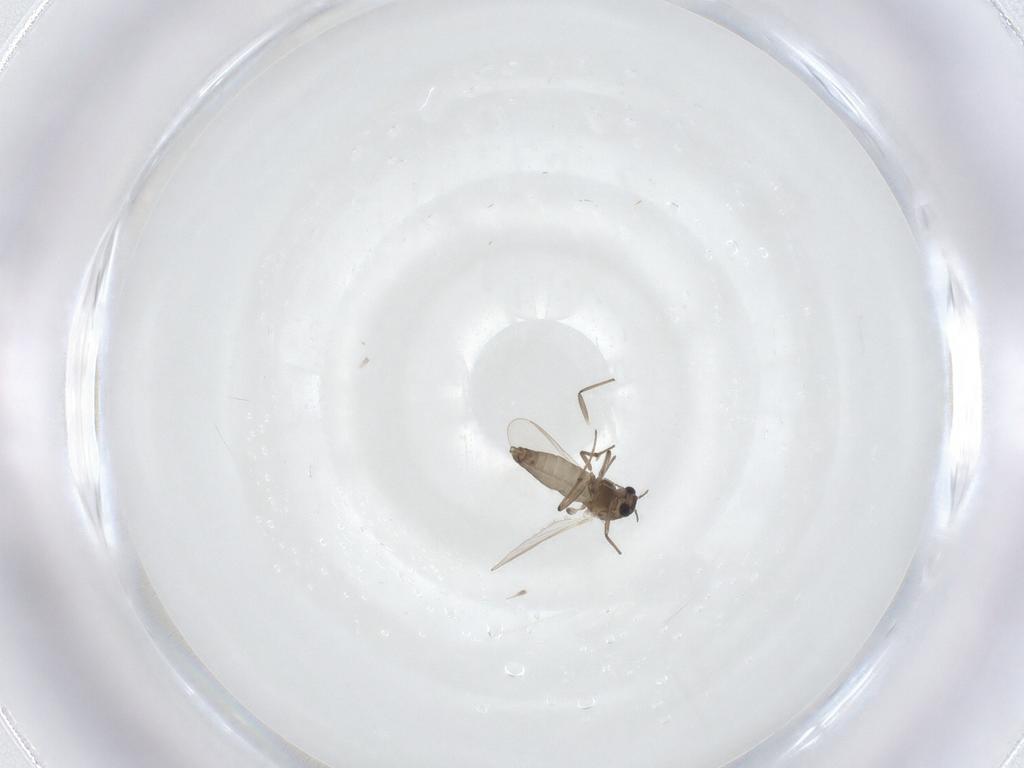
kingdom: Animalia
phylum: Arthropoda
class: Insecta
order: Diptera
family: Chironomidae
